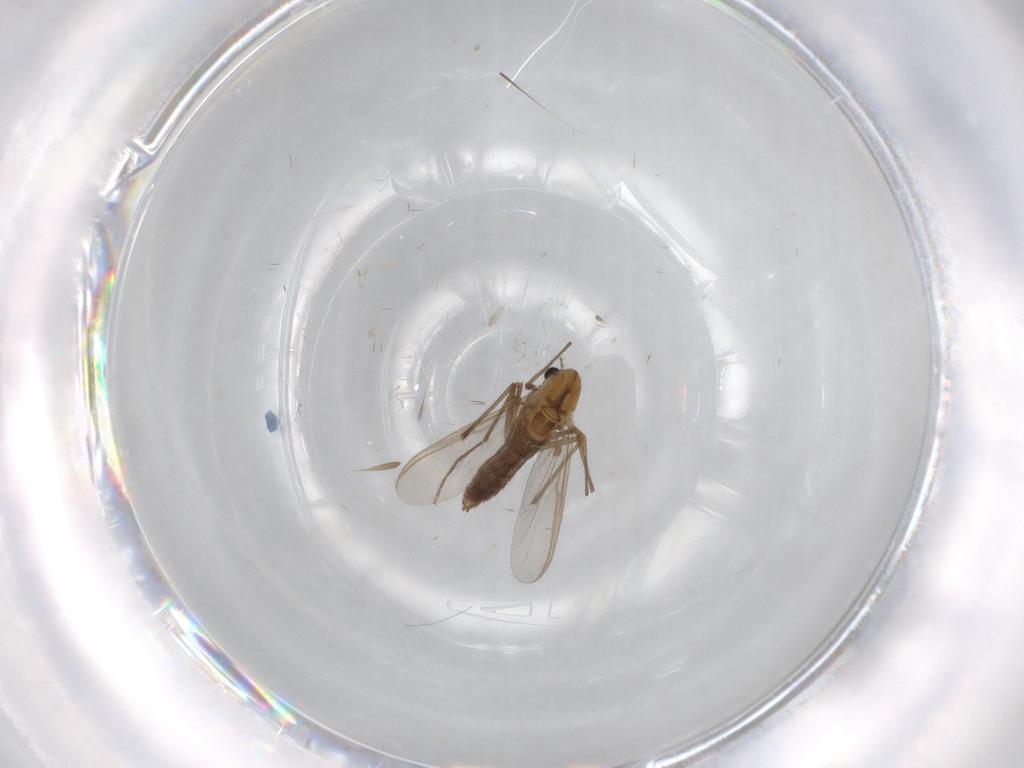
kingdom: Animalia
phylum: Arthropoda
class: Insecta
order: Diptera
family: Chironomidae
